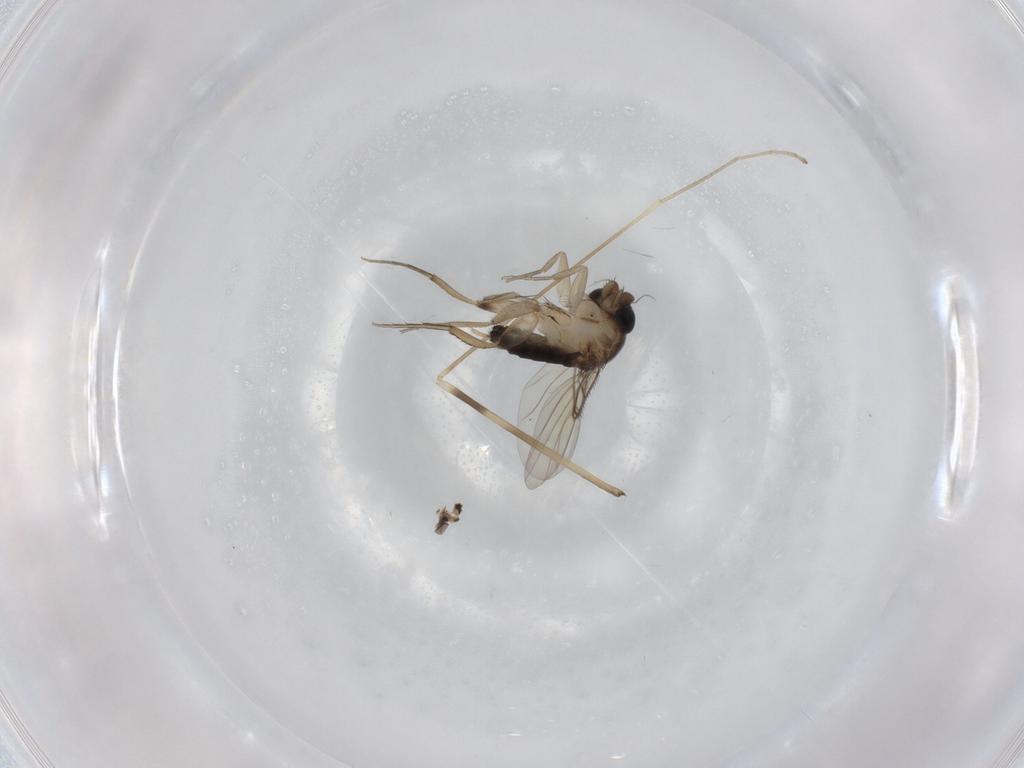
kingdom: Animalia
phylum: Arthropoda
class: Insecta
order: Diptera
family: Phoridae
